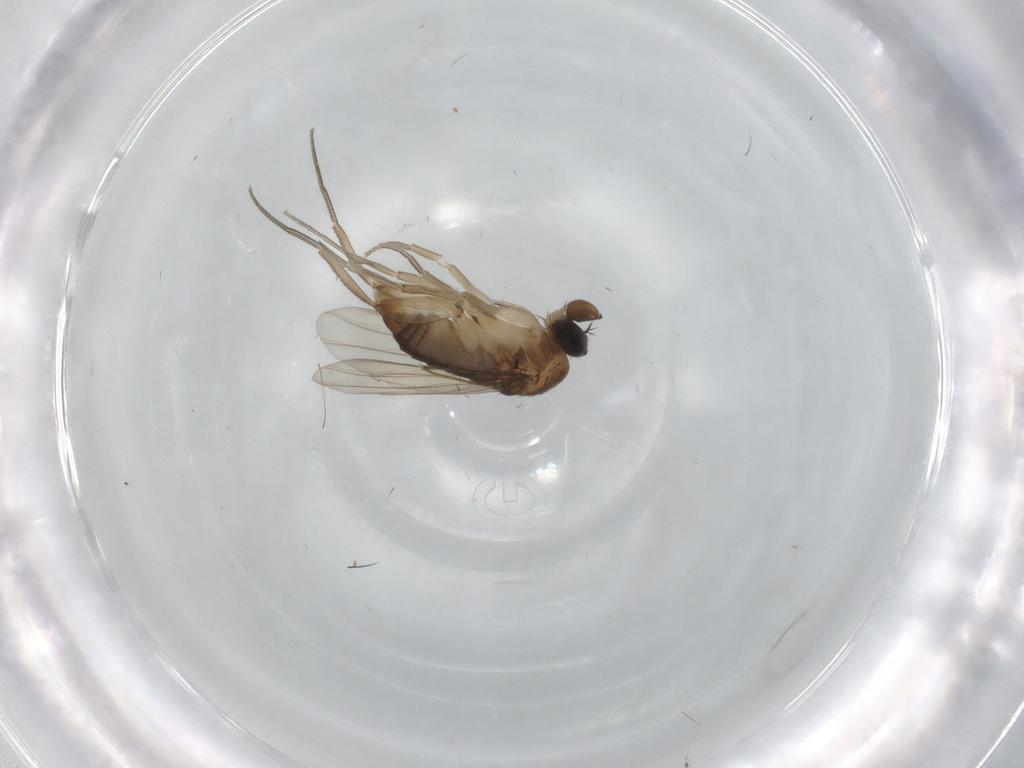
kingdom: Animalia
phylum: Arthropoda
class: Insecta
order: Diptera
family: Phoridae
